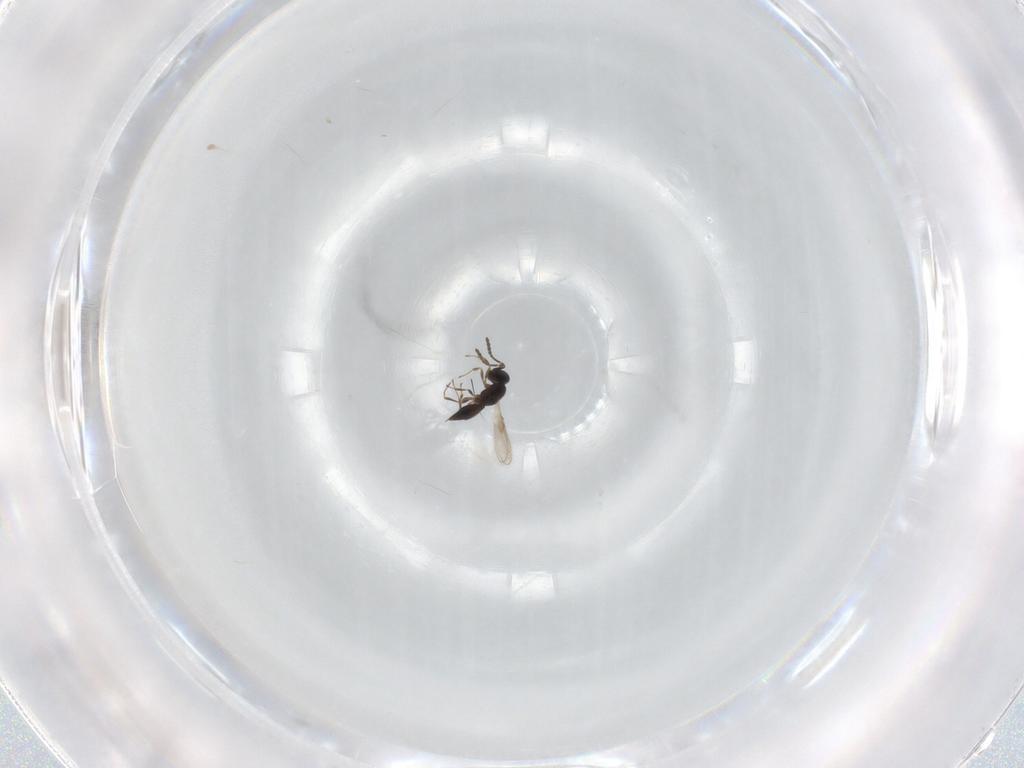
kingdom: Animalia
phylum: Arthropoda
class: Insecta
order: Hymenoptera
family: Scelionidae
